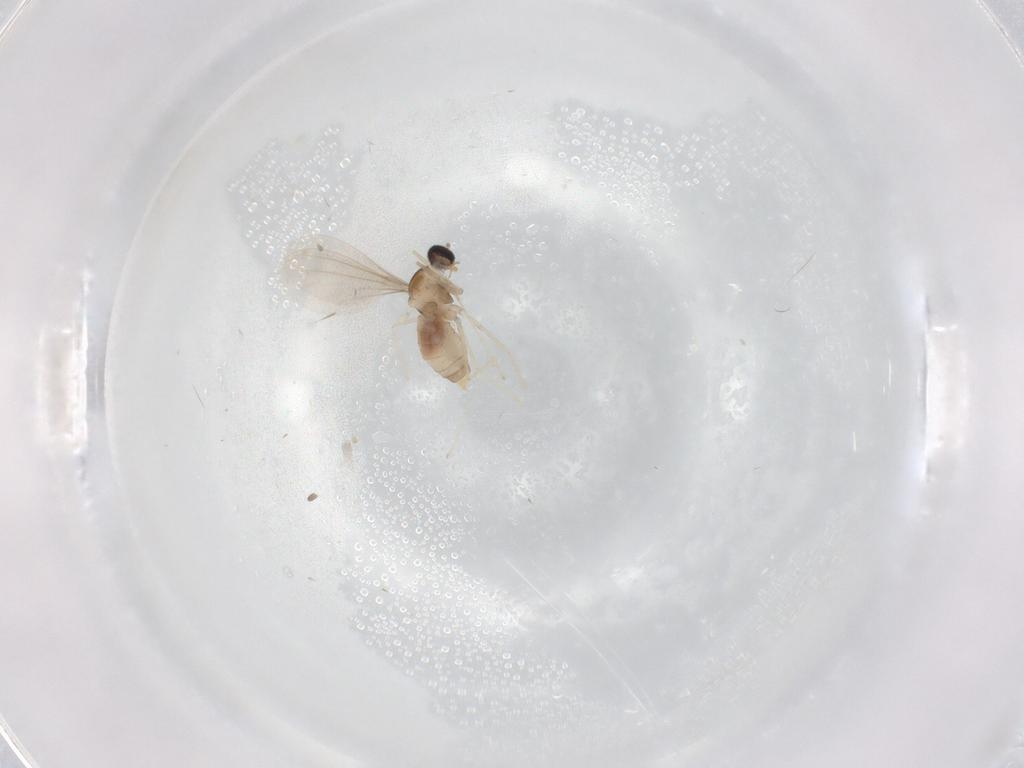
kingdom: Animalia
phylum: Arthropoda
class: Insecta
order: Diptera
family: Cecidomyiidae
